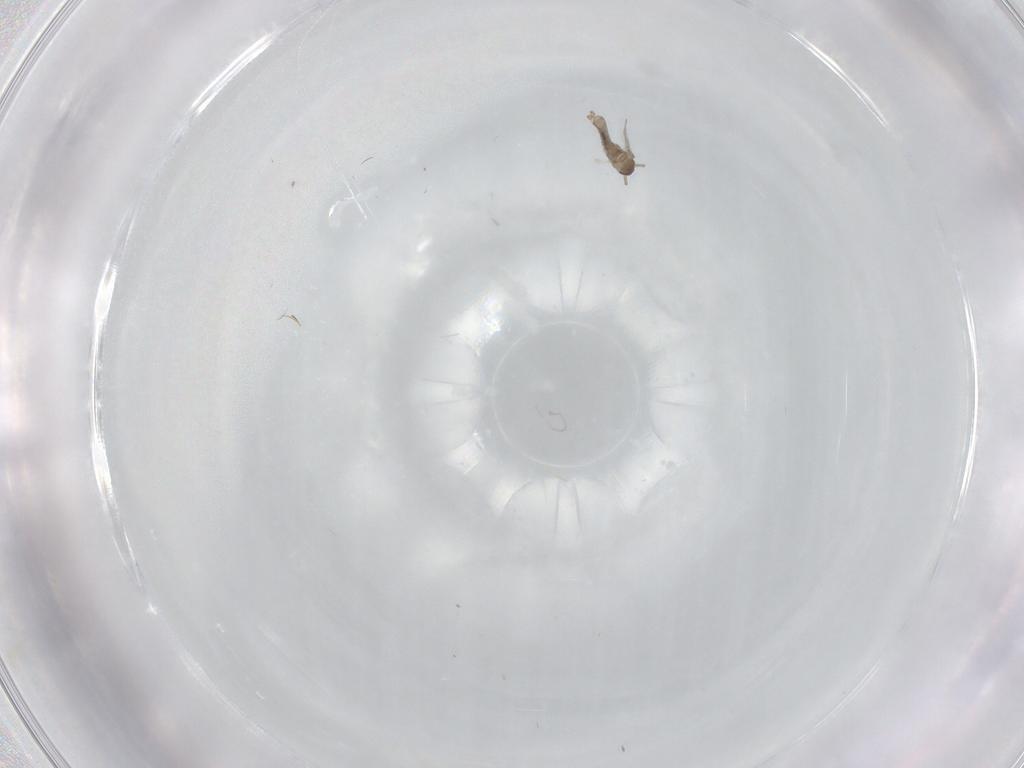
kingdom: Animalia
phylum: Arthropoda
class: Insecta
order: Diptera
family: Cecidomyiidae
